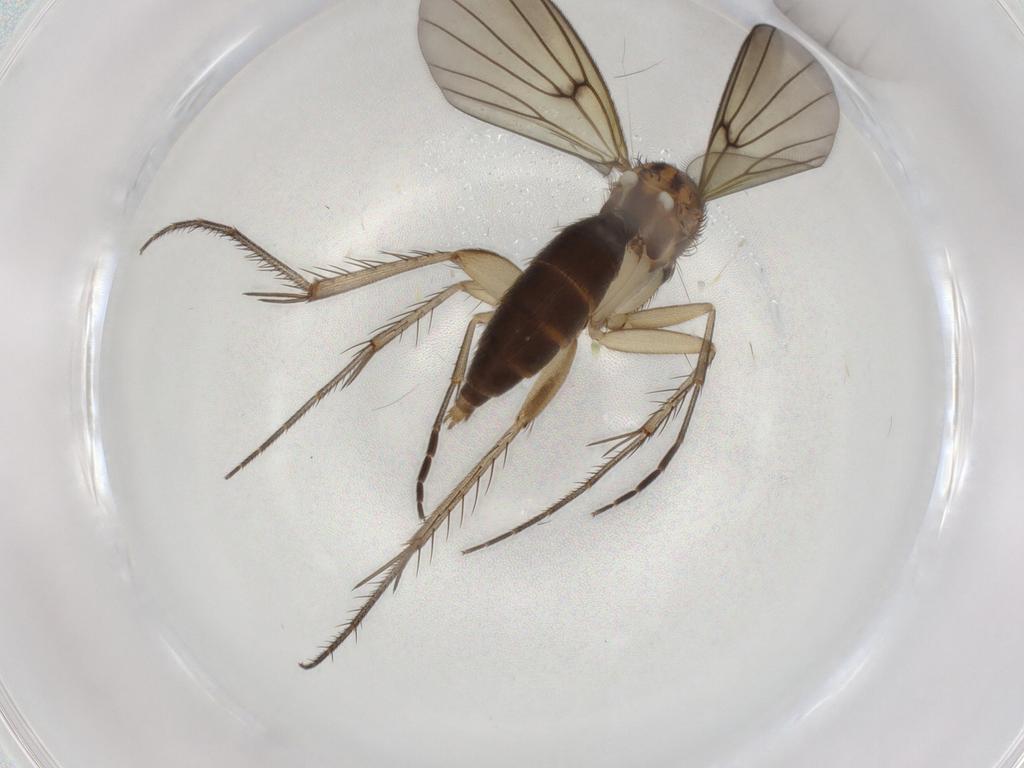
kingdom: Animalia
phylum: Arthropoda
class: Insecta
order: Diptera
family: Phoridae
